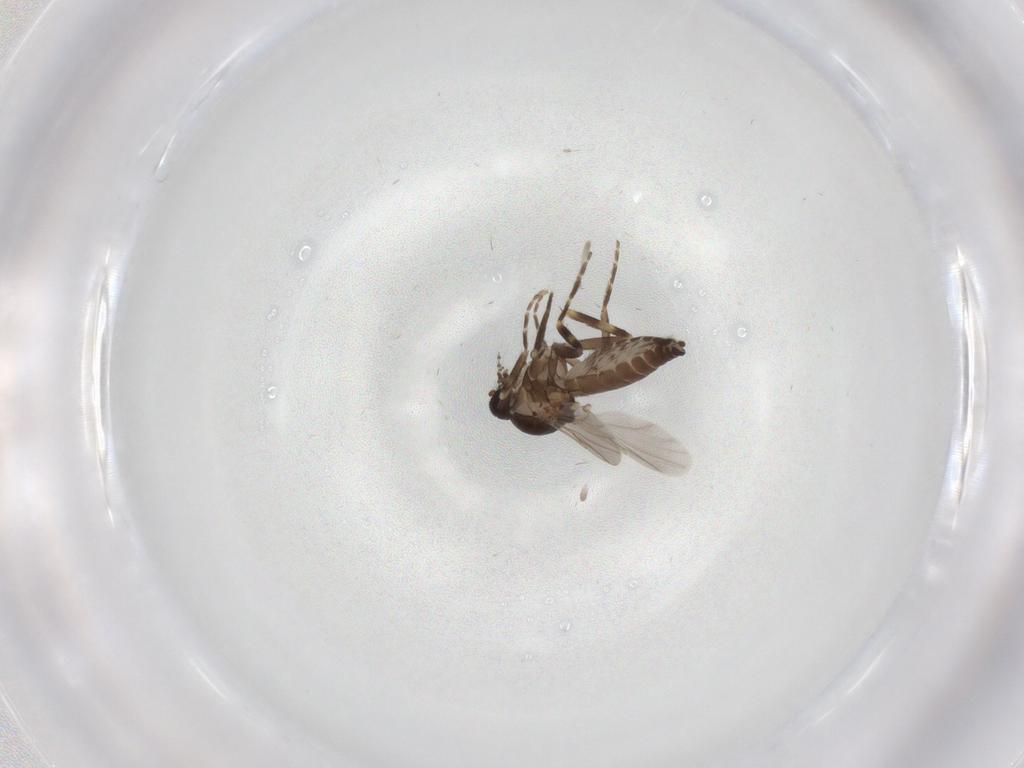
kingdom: Animalia
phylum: Arthropoda
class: Insecta
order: Diptera
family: Ceratopogonidae
